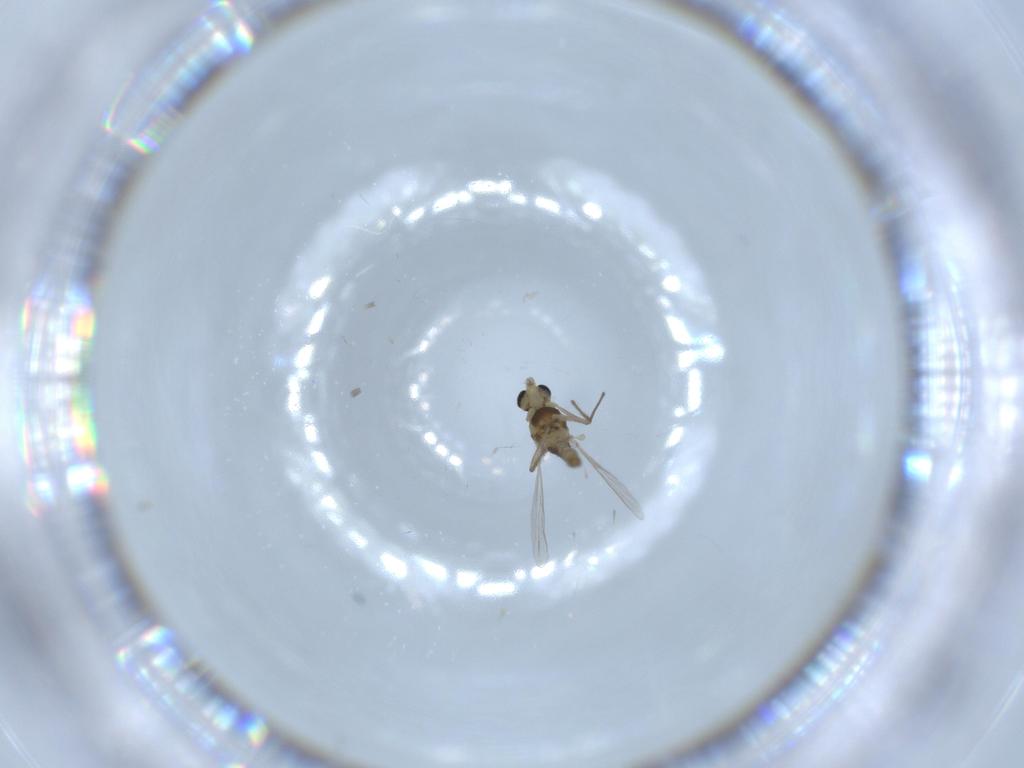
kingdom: Animalia
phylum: Arthropoda
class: Insecta
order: Diptera
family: Chironomidae
